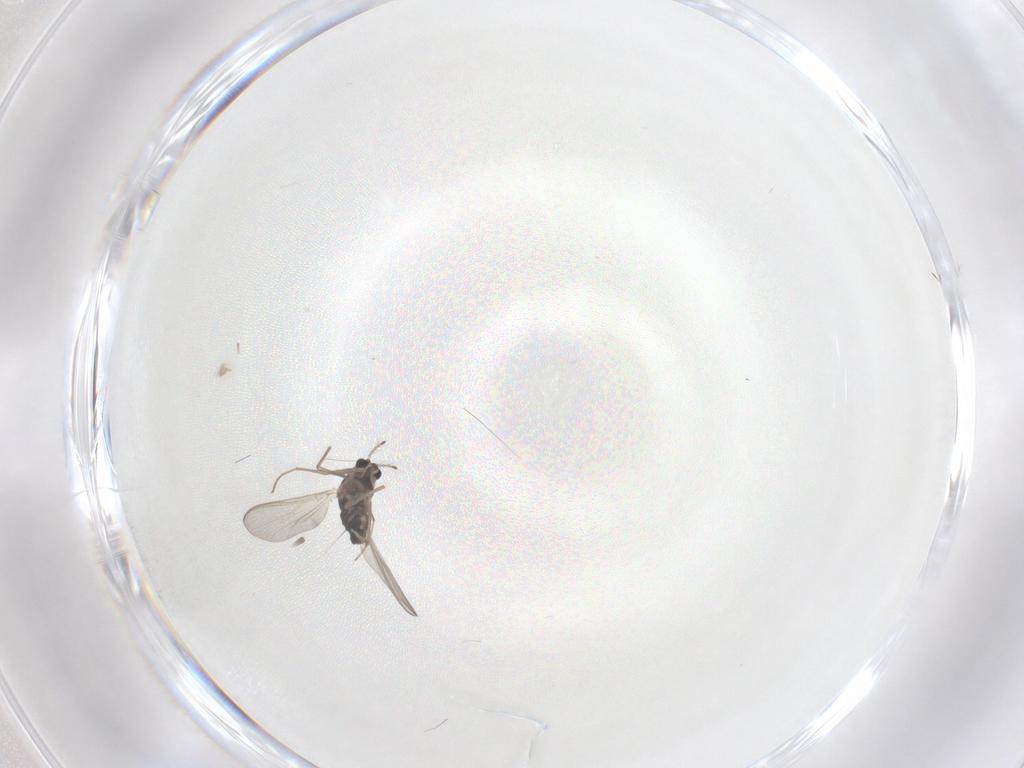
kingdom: Animalia
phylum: Arthropoda
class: Insecta
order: Diptera
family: Chironomidae
